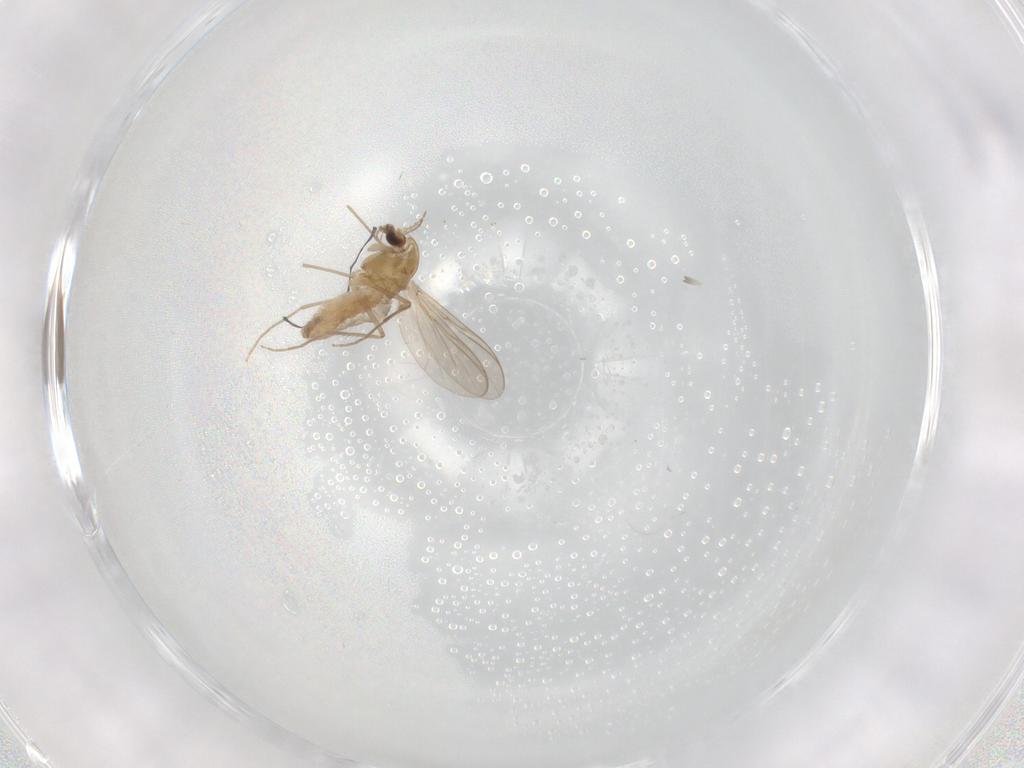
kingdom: Animalia
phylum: Arthropoda
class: Insecta
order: Diptera
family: Chironomidae
